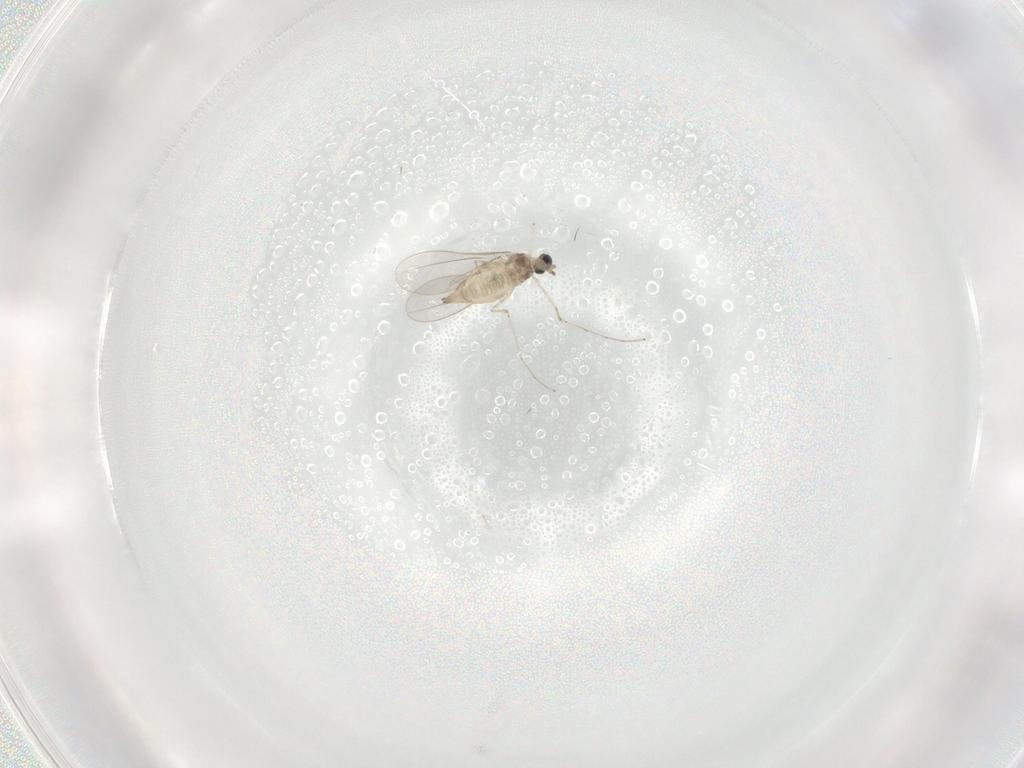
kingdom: Animalia
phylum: Arthropoda
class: Insecta
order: Diptera
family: Cecidomyiidae
